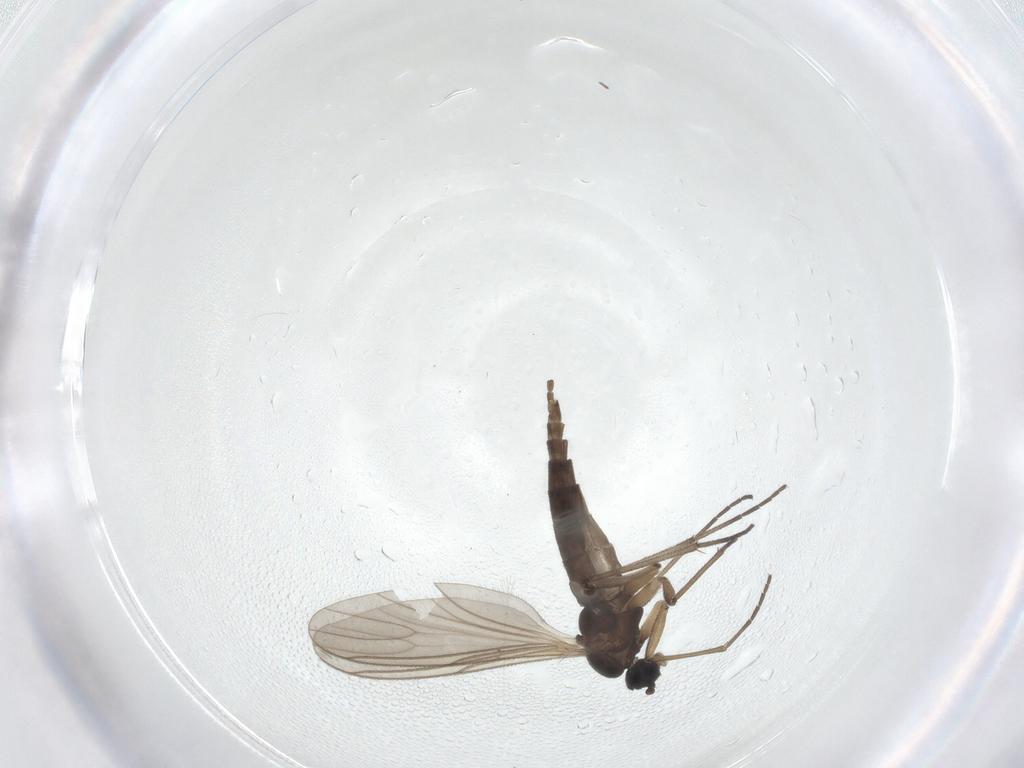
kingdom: Animalia
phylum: Arthropoda
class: Insecta
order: Diptera
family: Sciaridae
